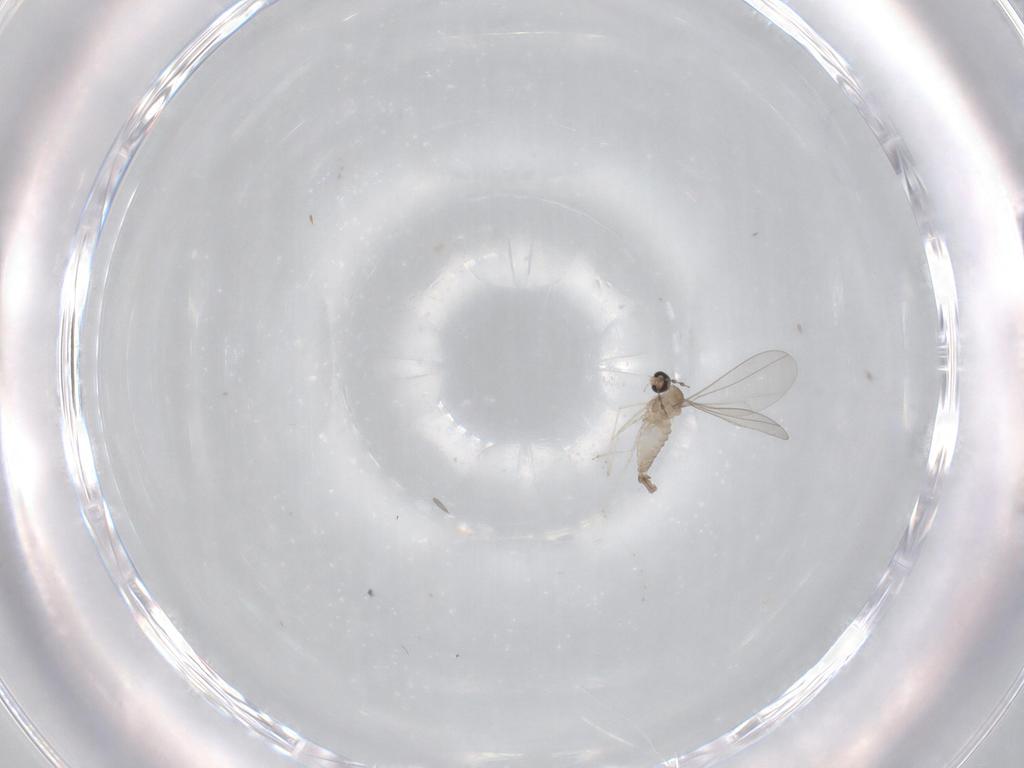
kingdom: Animalia
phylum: Arthropoda
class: Insecta
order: Diptera
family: Cecidomyiidae
